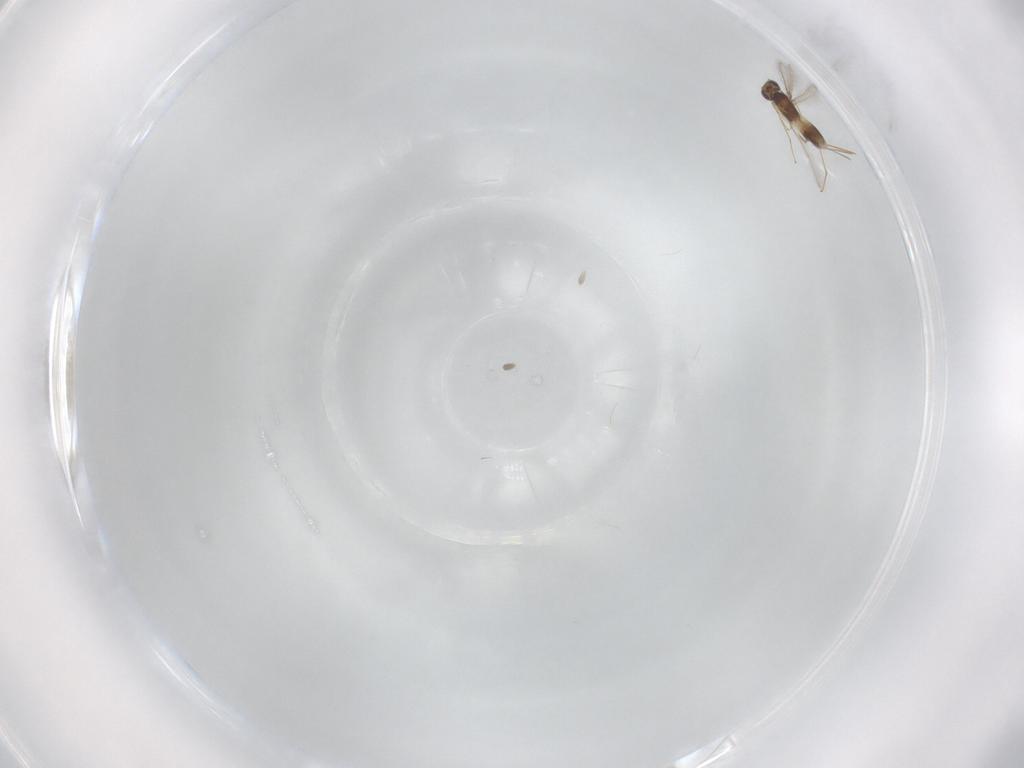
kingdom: Animalia
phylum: Arthropoda
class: Insecta
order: Hymenoptera
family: Mymaridae
